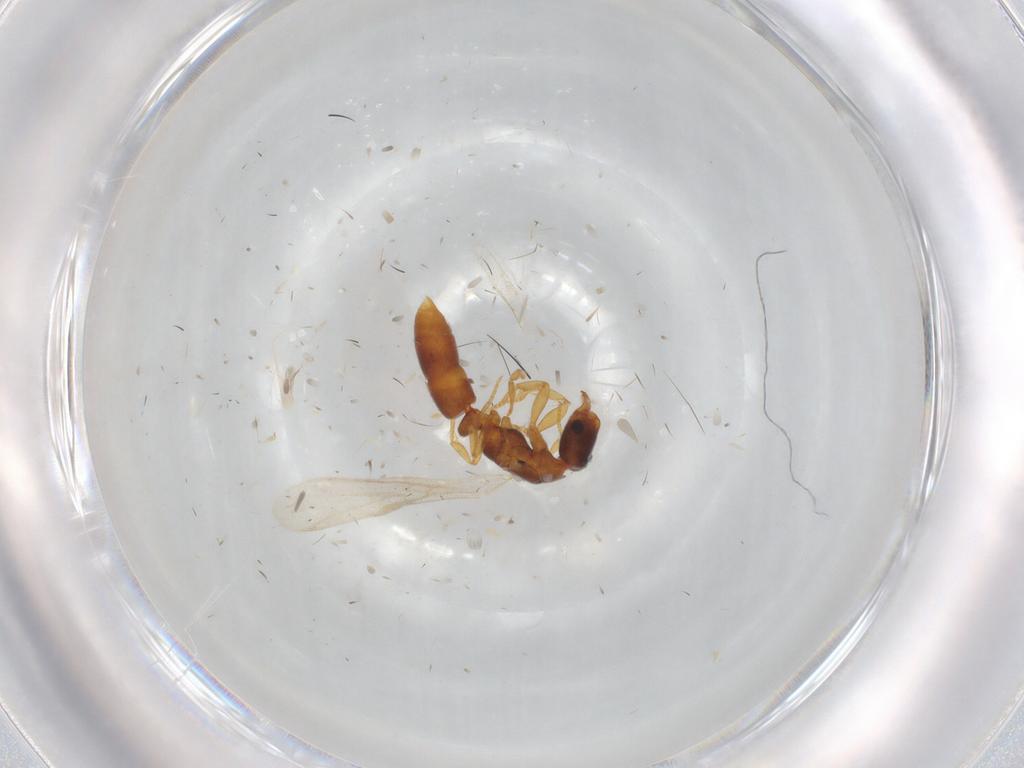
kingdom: Animalia
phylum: Arthropoda
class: Insecta
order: Hymenoptera
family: Formicidae
